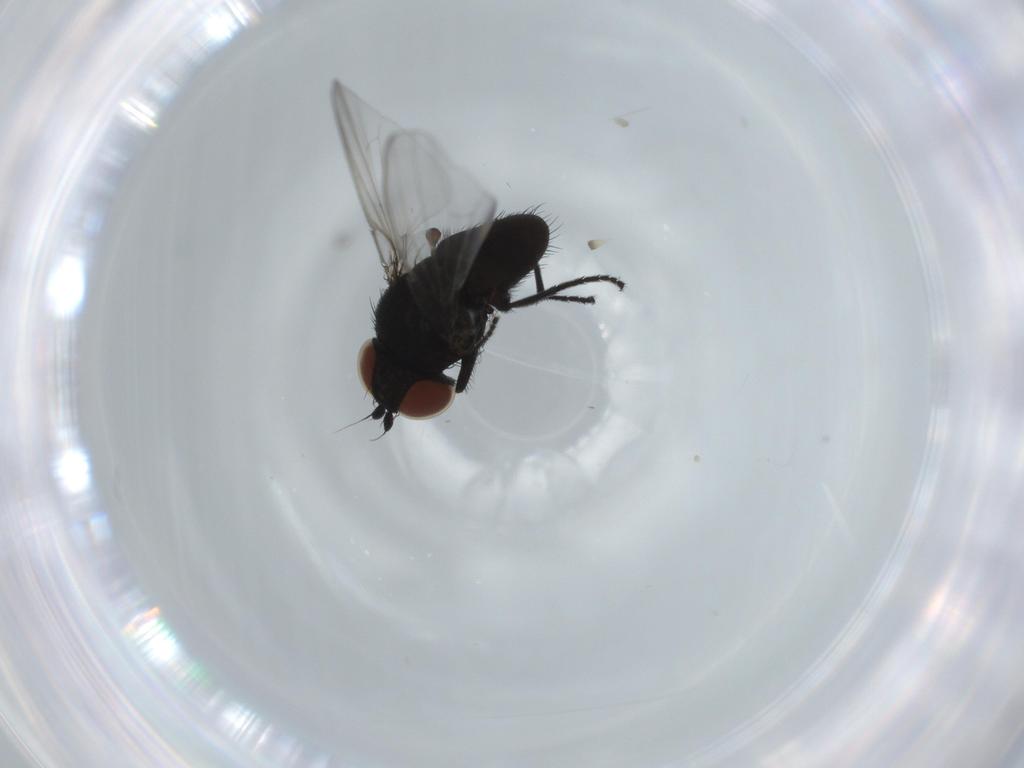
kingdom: Animalia
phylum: Arthropoda
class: Insecta
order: Diptera
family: Milichiidae
